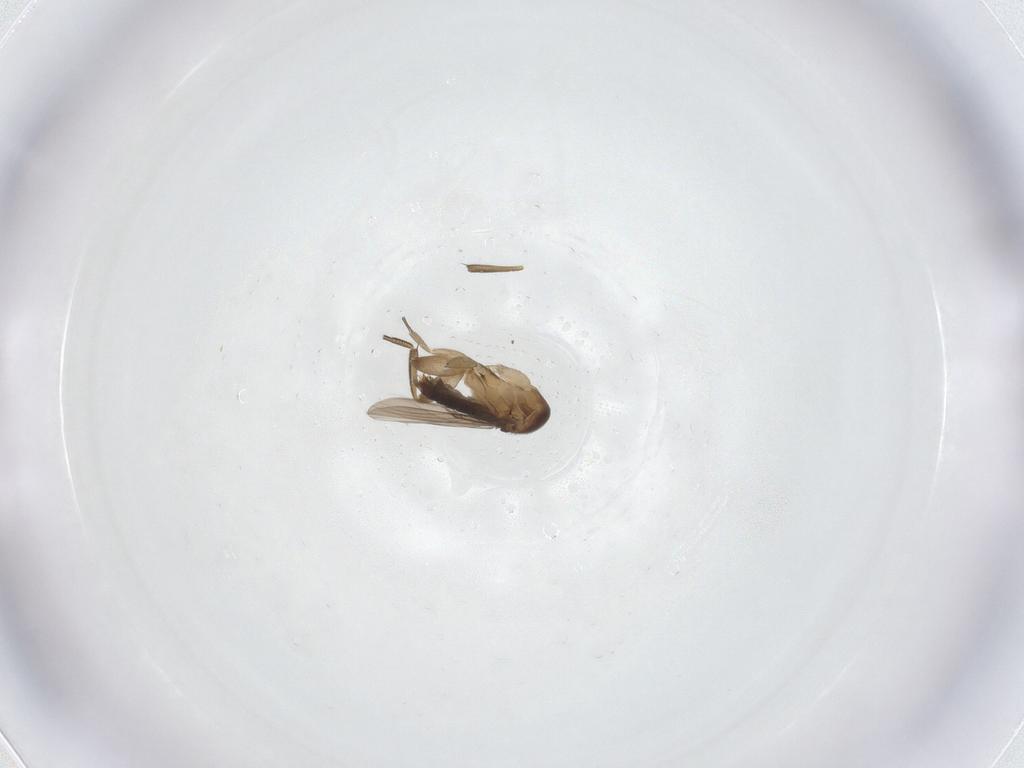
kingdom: Animalia
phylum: Arthropoda
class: Insecta
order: Diptera
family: Phoridae
